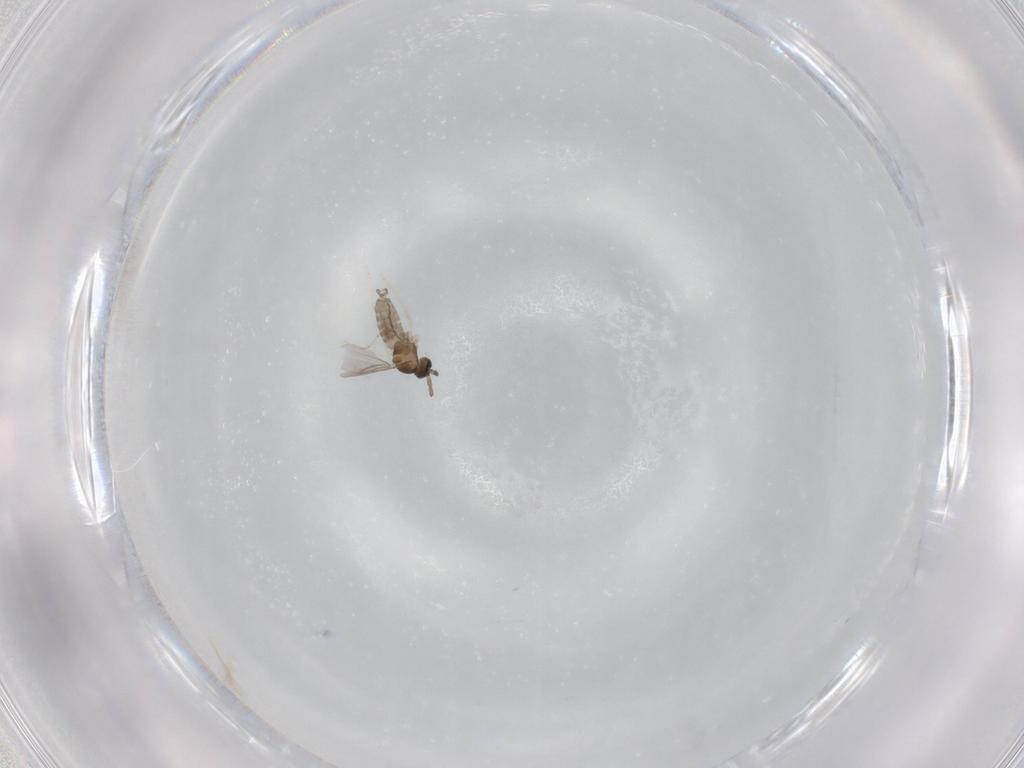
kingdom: Animalia
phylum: Arthropoda
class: Insecta
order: Diptera
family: Cecidomyiidae
